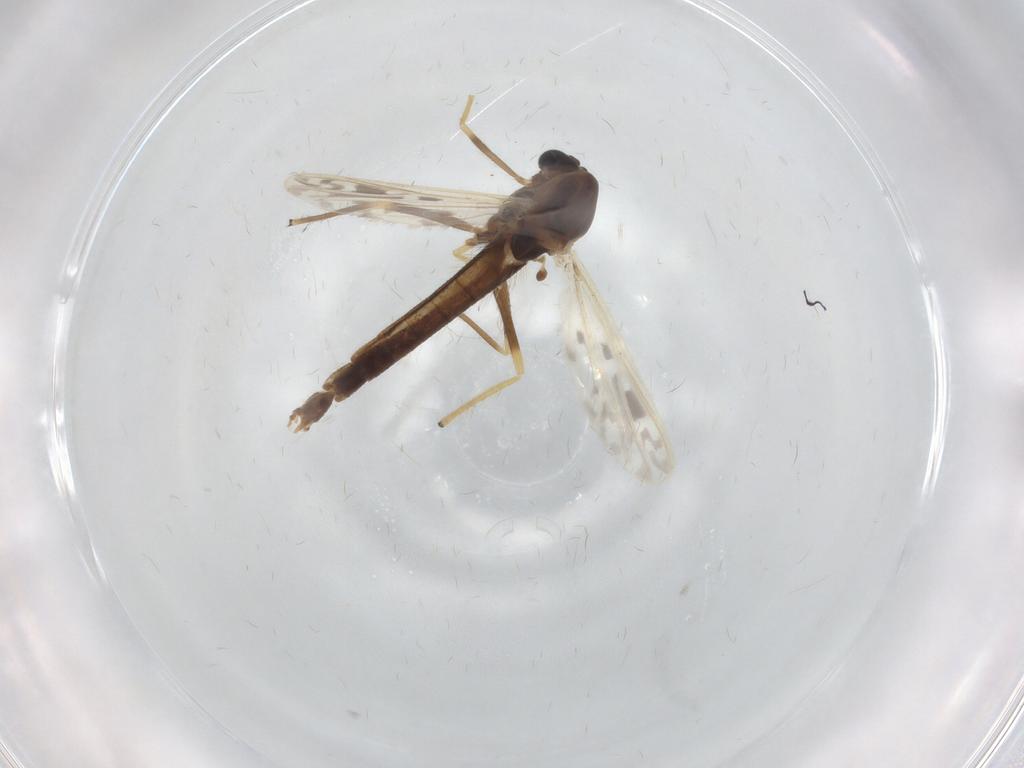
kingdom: Animalia
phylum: Arthropoda
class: Insecta
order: Diptera
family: Chironomidae
